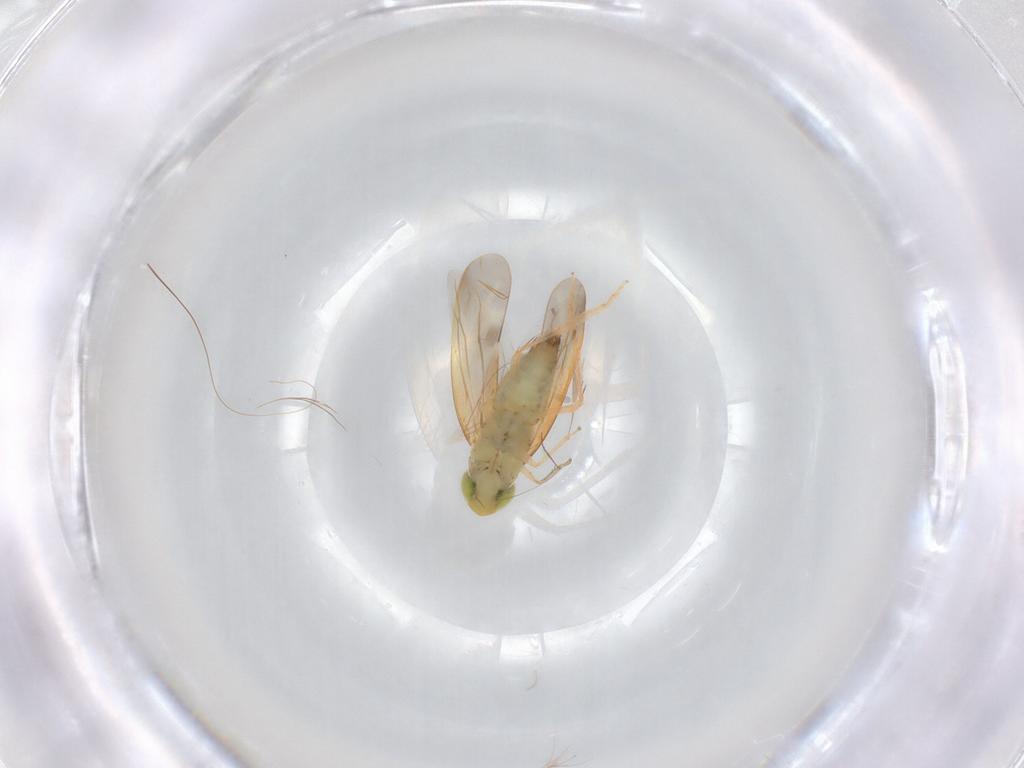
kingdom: Animalia
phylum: Arthropoda
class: Insecta
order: Hemiptera
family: Cicadellidae
